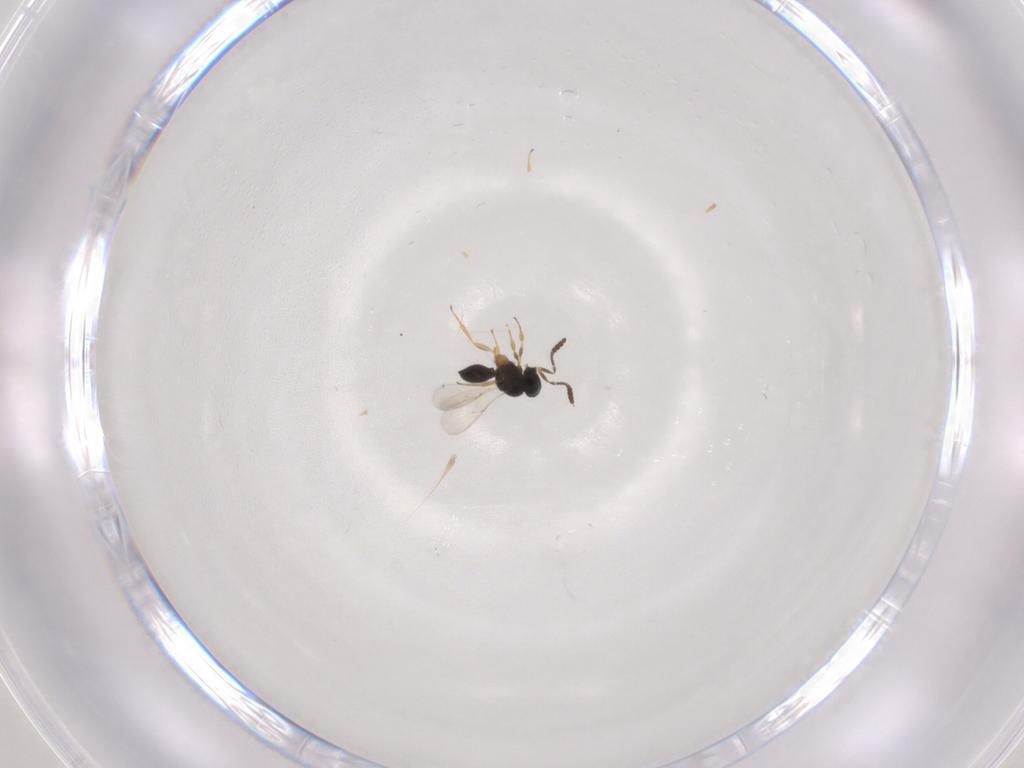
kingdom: Animalia
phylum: Arthropoda
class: Insecta
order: Hymenoptera
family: Scelionidae
